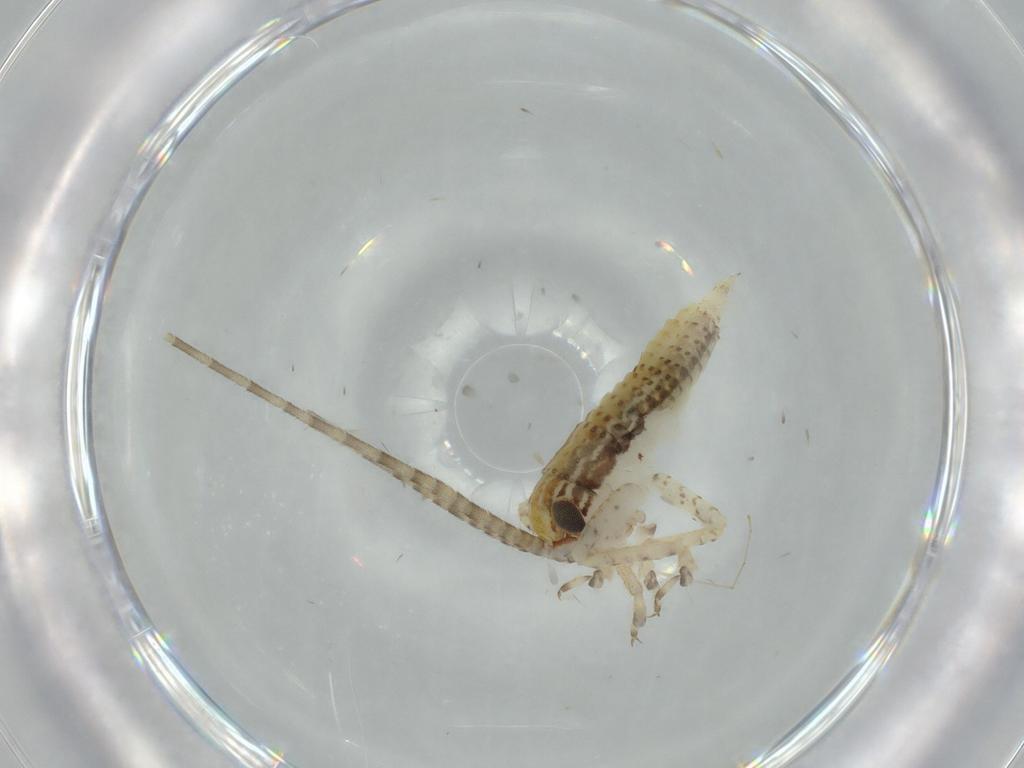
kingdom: Animalia
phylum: Arthropoda
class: Insecta
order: Orthoptera
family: Gryllidae
